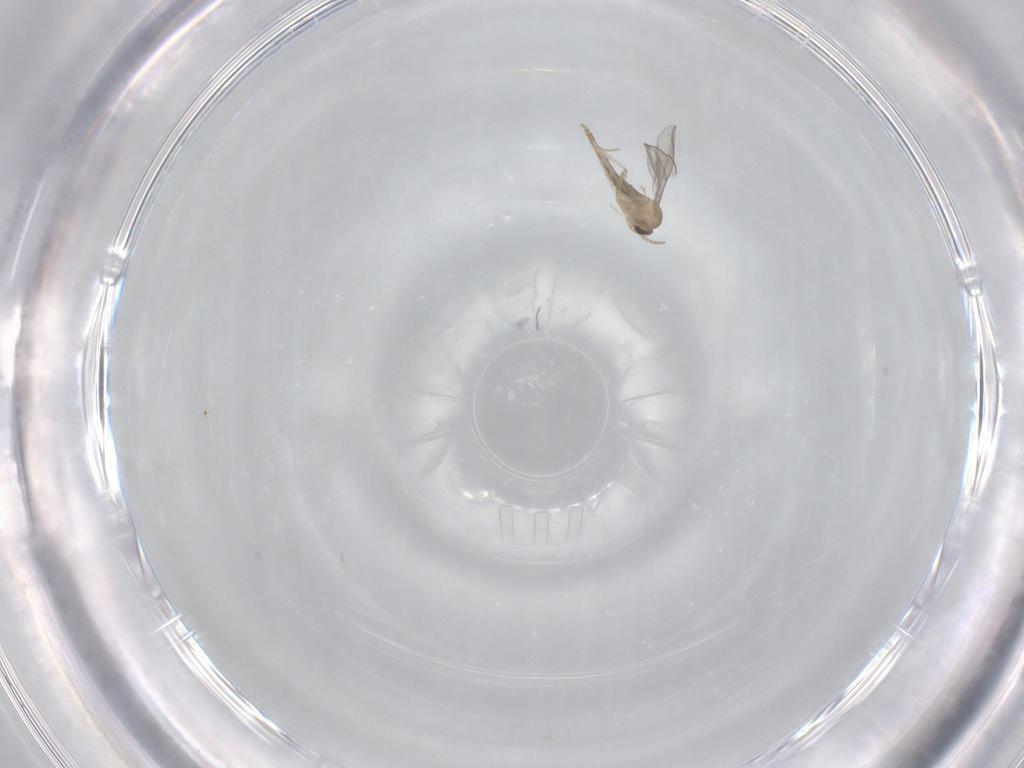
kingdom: Animalia
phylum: Arthropoda
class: Insecta
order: Diptera
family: Cecidomyiidae
